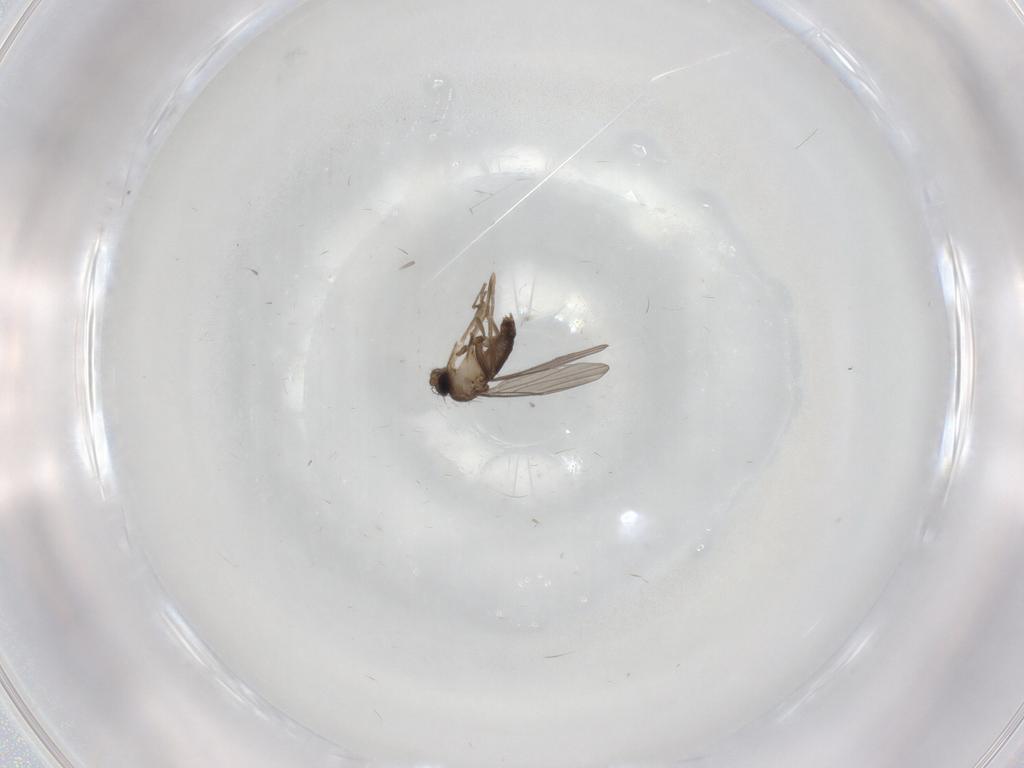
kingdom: Animalia
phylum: Arthropoda
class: Insecta
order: Diptera
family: Phoridae
